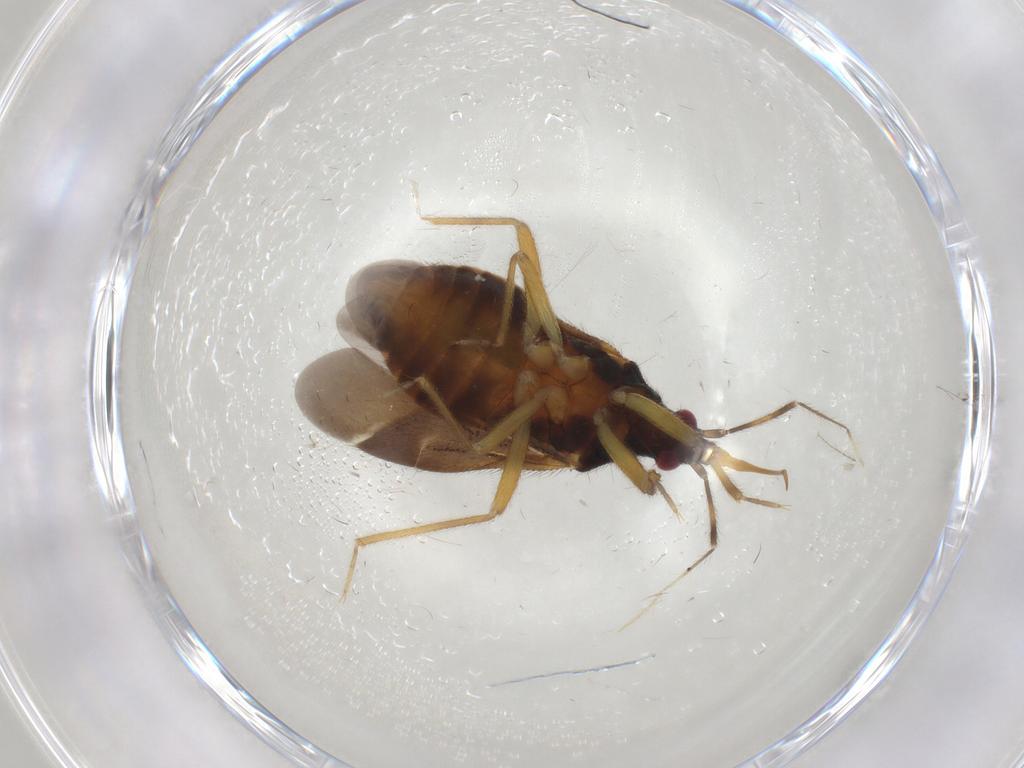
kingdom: Animalia
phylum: Arthropoda
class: Insecta
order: Hemiptera
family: Anthocoridae
